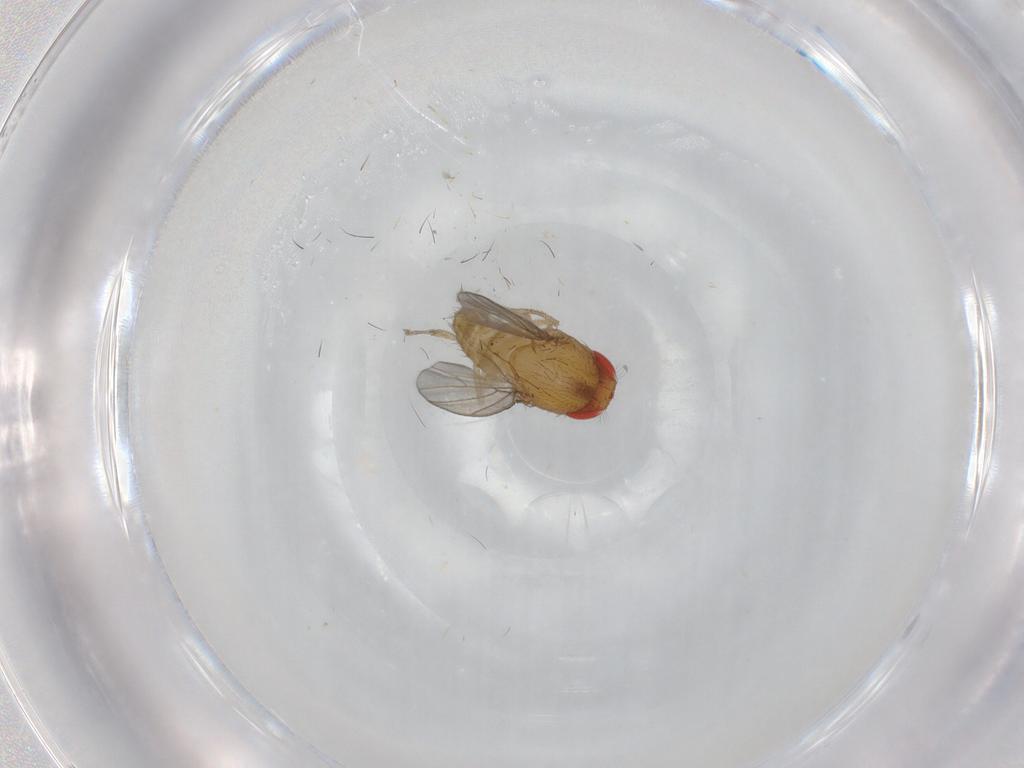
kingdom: Animalia
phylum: Arthropoda
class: Insecta
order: Diptera
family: Drosophilidae
